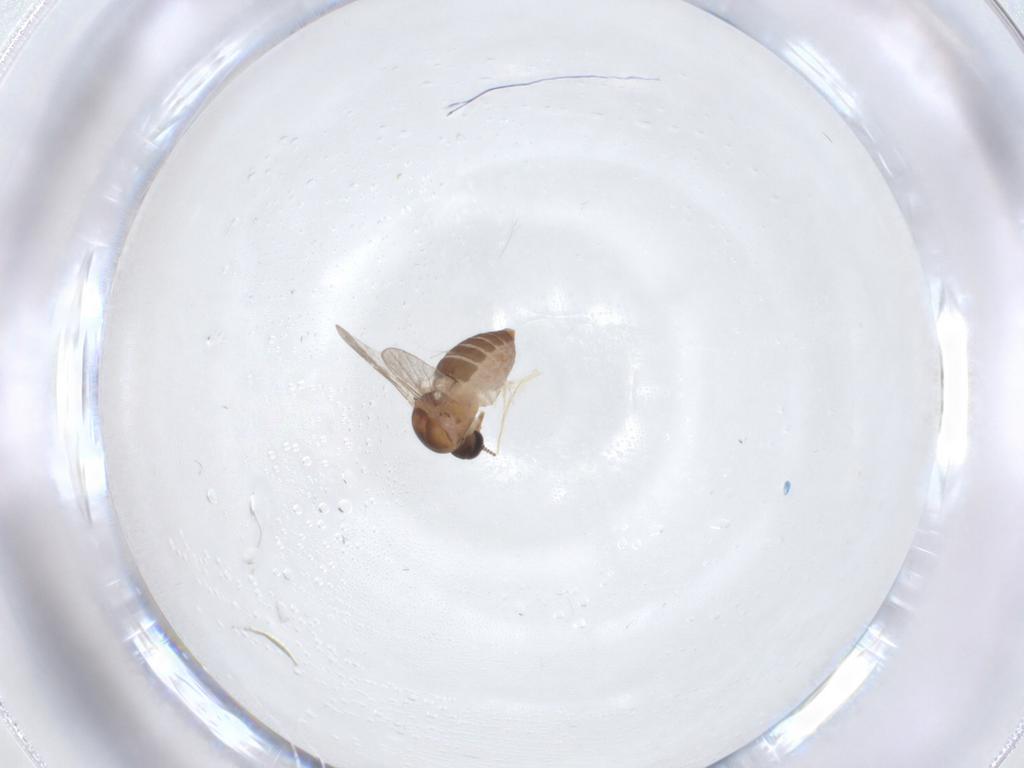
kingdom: Animalia
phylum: Arthropoda
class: Insecta
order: Diptera
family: Ceratopogonidae
